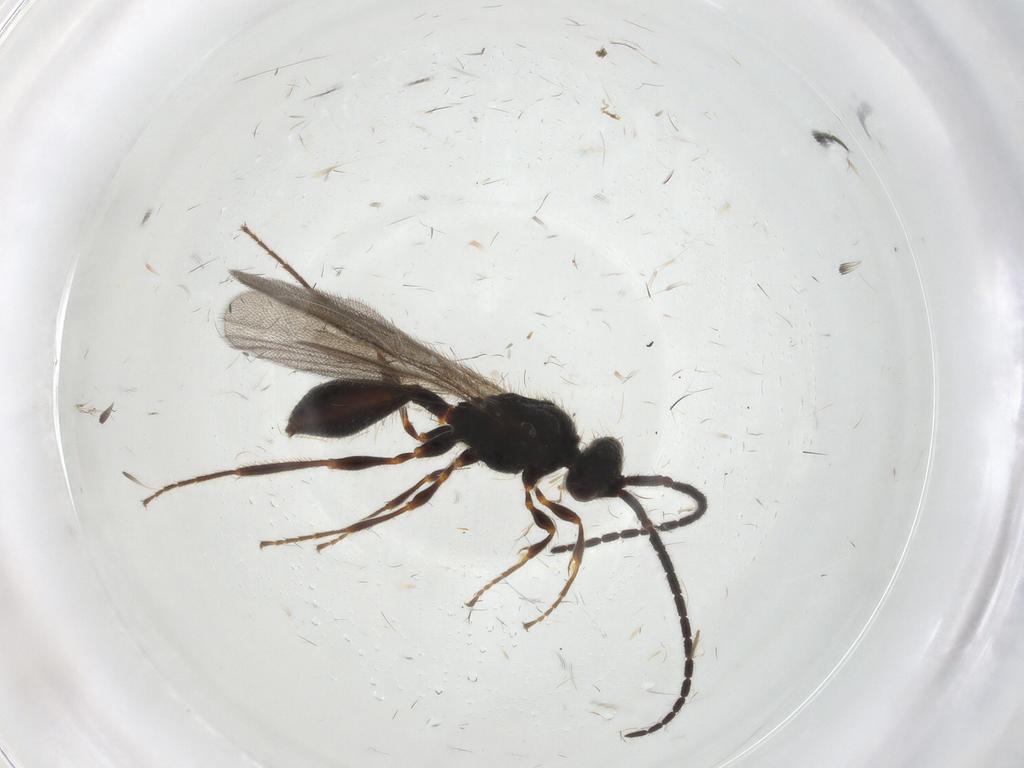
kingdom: Animalia
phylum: Arthropoda
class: Insecta
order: Hymenoptera
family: Diapriidae
